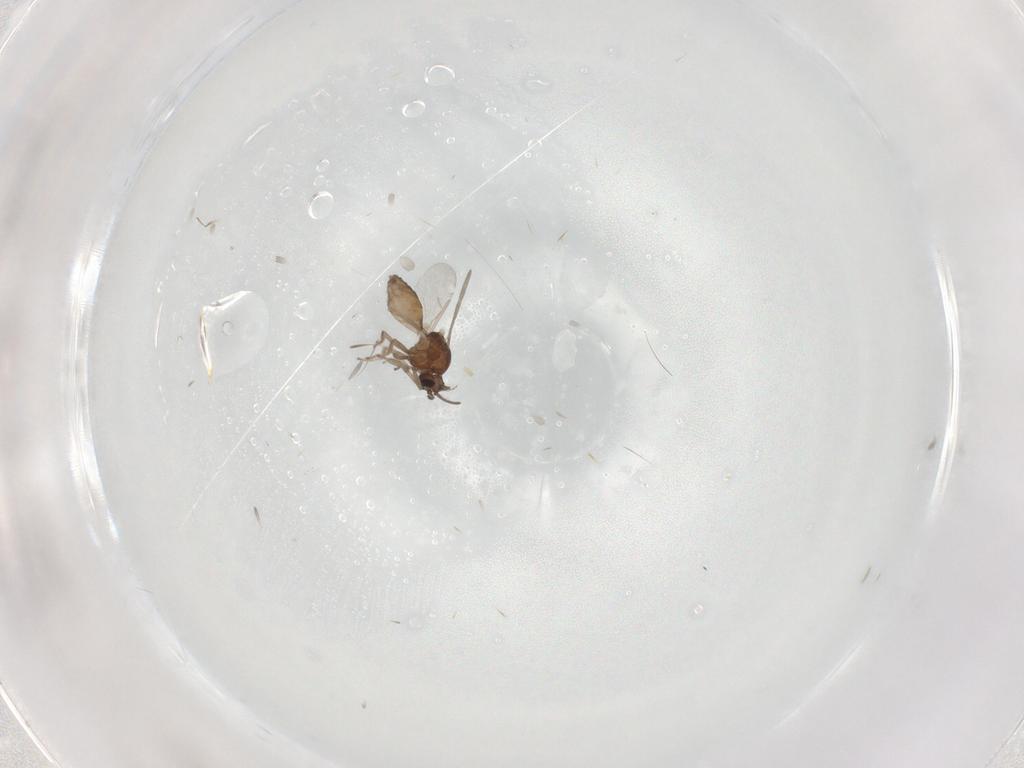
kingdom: Animalia
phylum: Arthropoda
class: Insecta
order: Diptera
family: Ceratopogonidae
